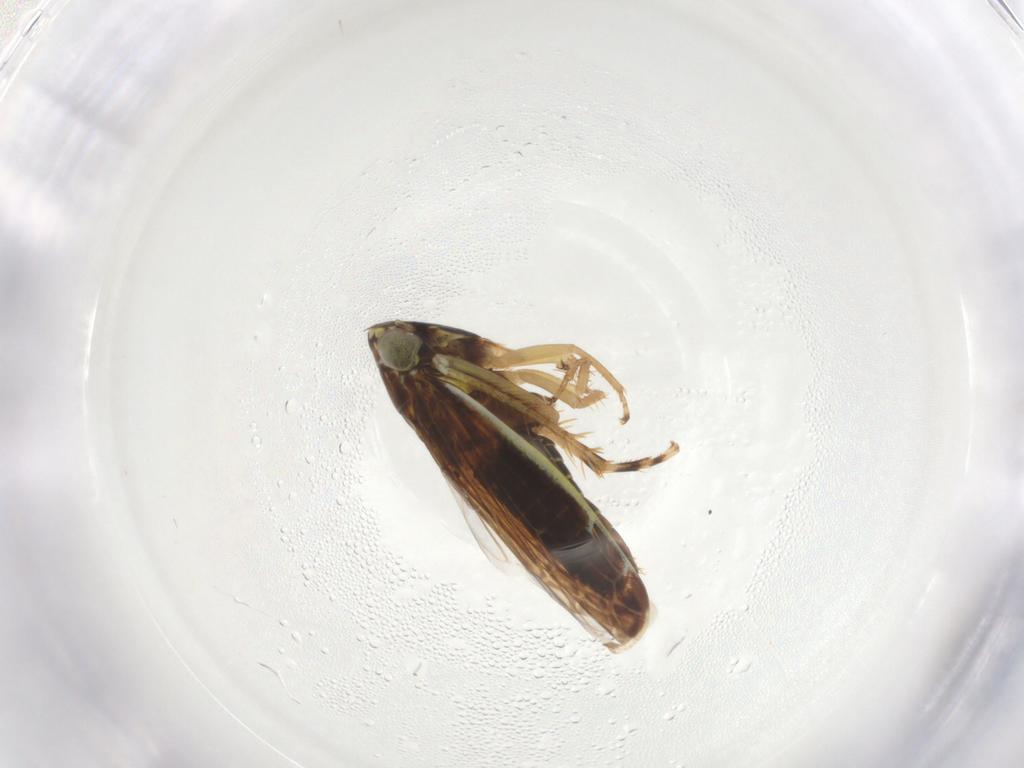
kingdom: Animalia
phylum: Arthropoda
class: Insecta
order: Hemiptera
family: Cicadellidae
